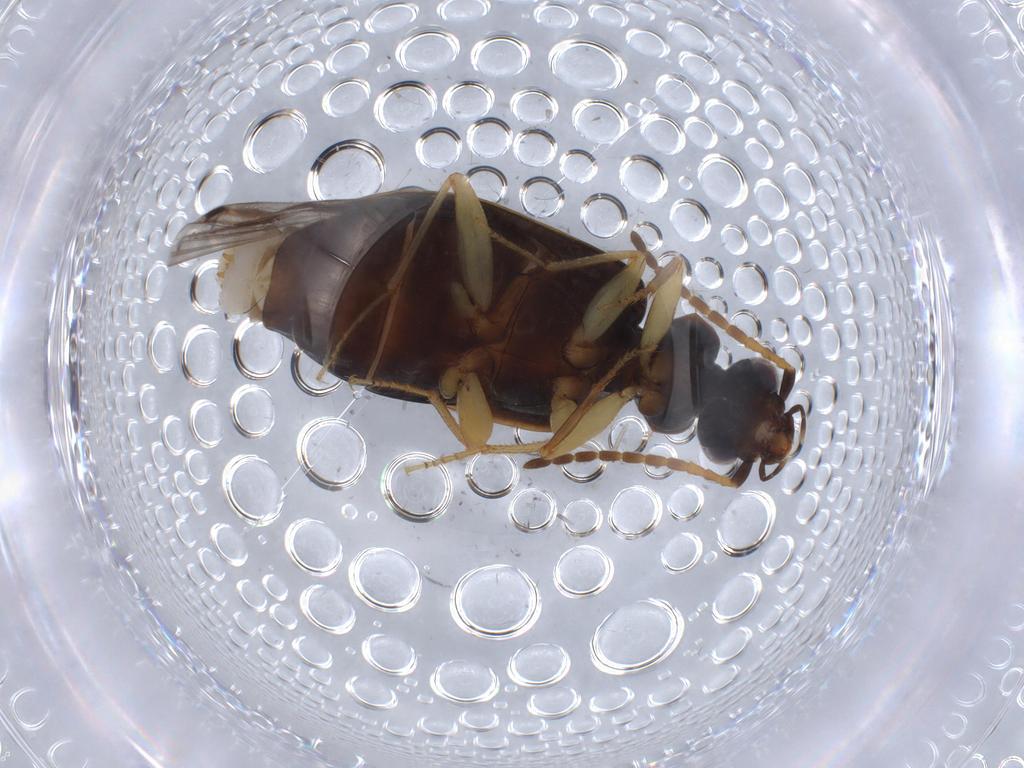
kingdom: Animalia
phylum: Arthropoda
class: Insecta
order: Coleoptera
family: Carabidae
